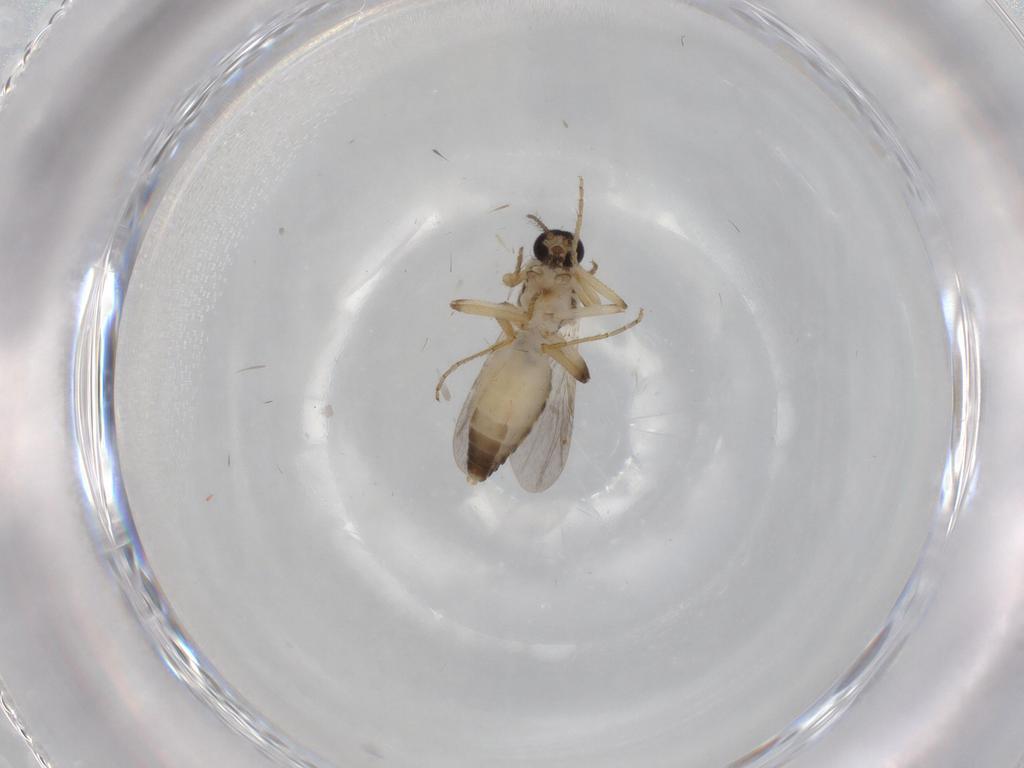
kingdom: Animalia
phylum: Arthropoda
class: Insecta
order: Diptera
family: Ceratopogonidae
